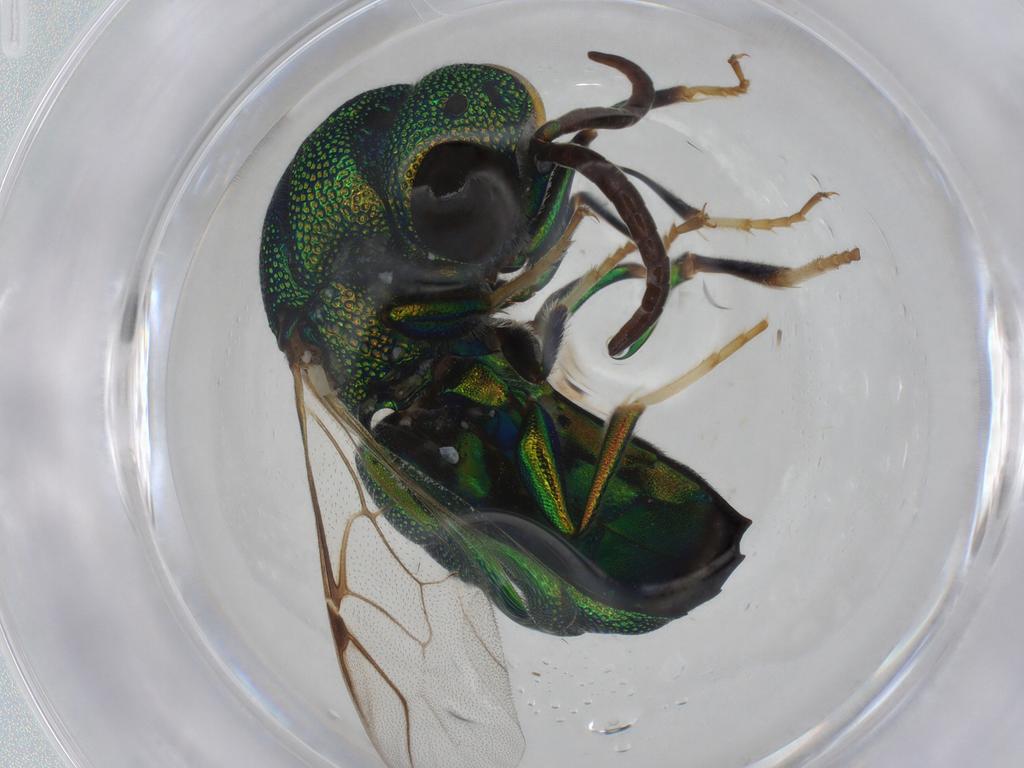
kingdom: Animalia
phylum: Arthropoda
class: Insecta
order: Hymenoptera
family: Chrysididae
